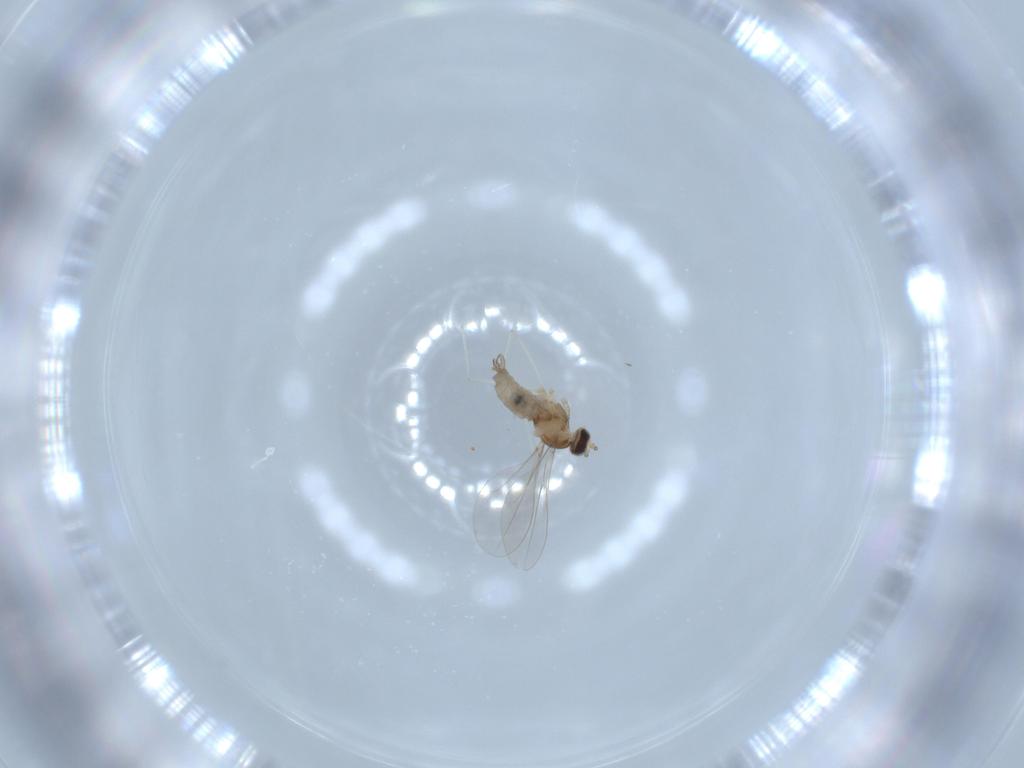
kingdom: Animalia
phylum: Arthropoda
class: Insecta
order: Diptera
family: Cecidomyiidae
